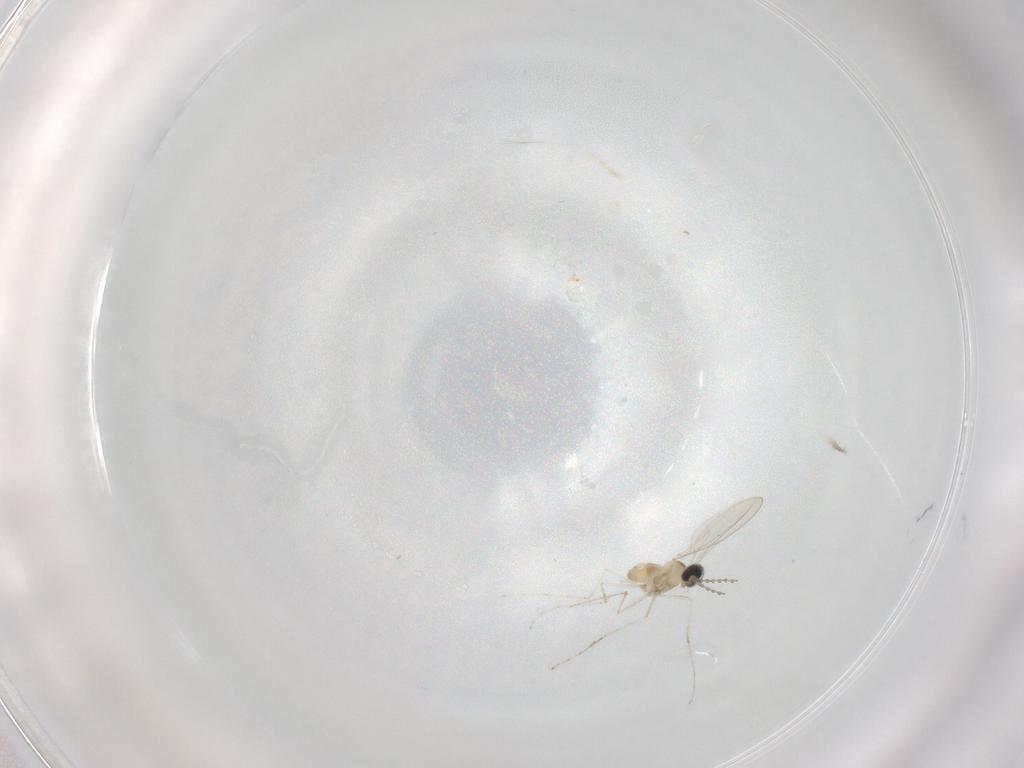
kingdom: Animalia
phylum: Arthropoda
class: Insecta
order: Diptera
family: Cecidomyiidae
